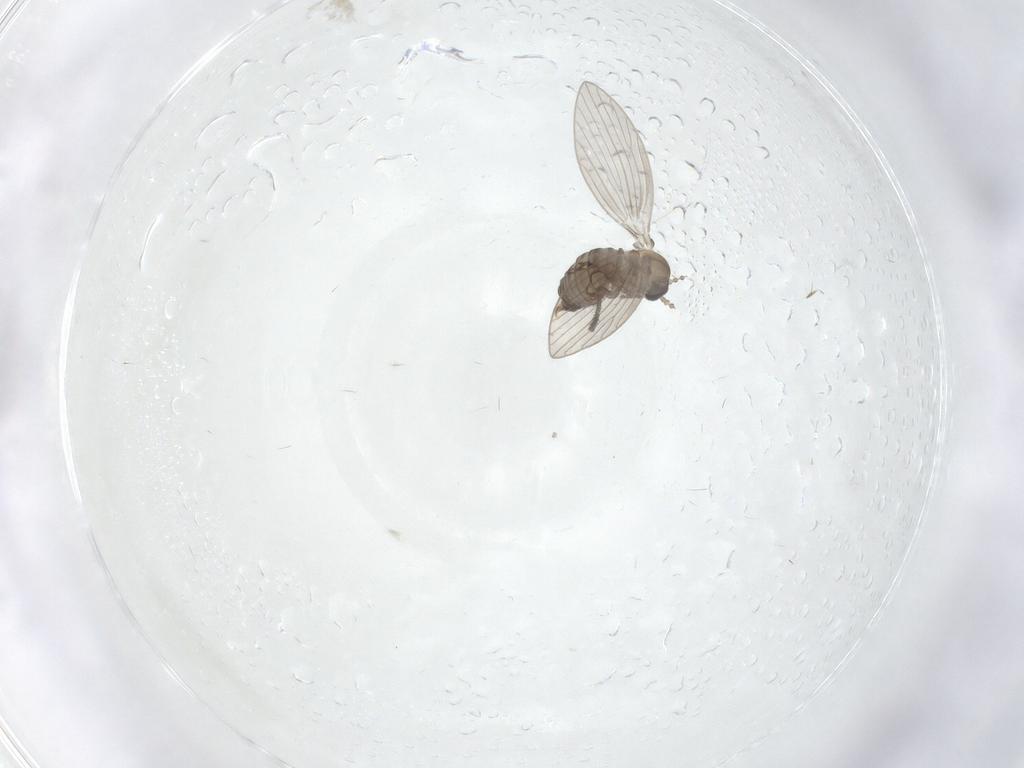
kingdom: Animalia
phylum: Arthropoda
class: Insecta
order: Diptera
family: Psychodidae
